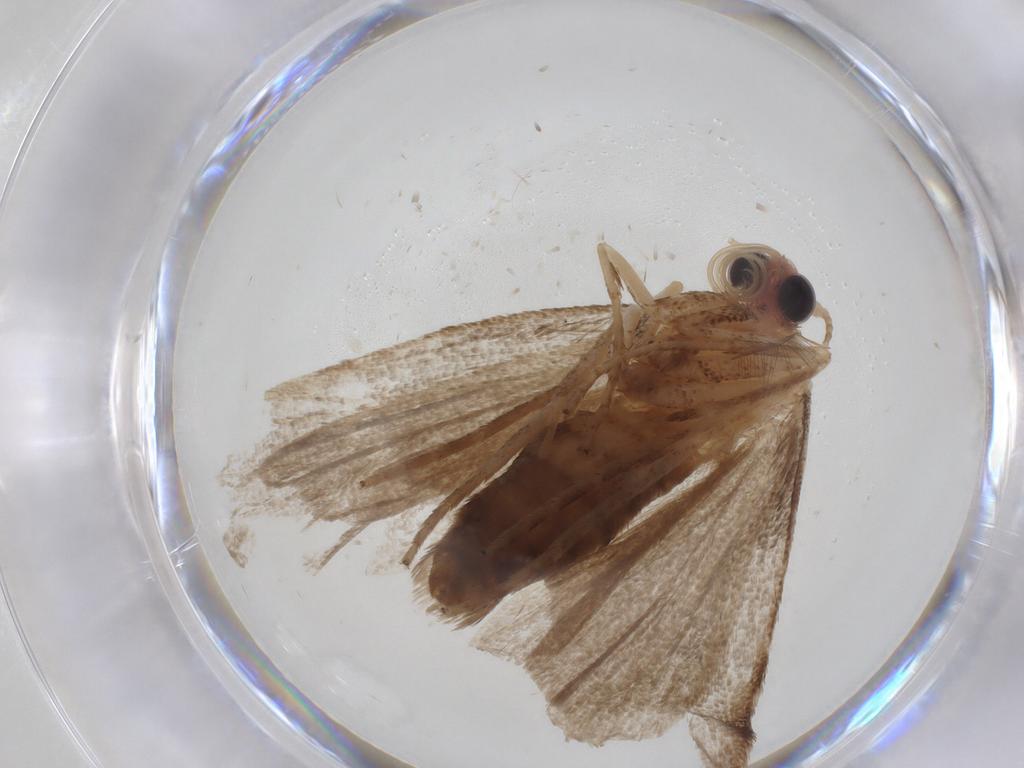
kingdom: Animalia
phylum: Arthropoda
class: Insecta
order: Lepidoptera
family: Nolidae
